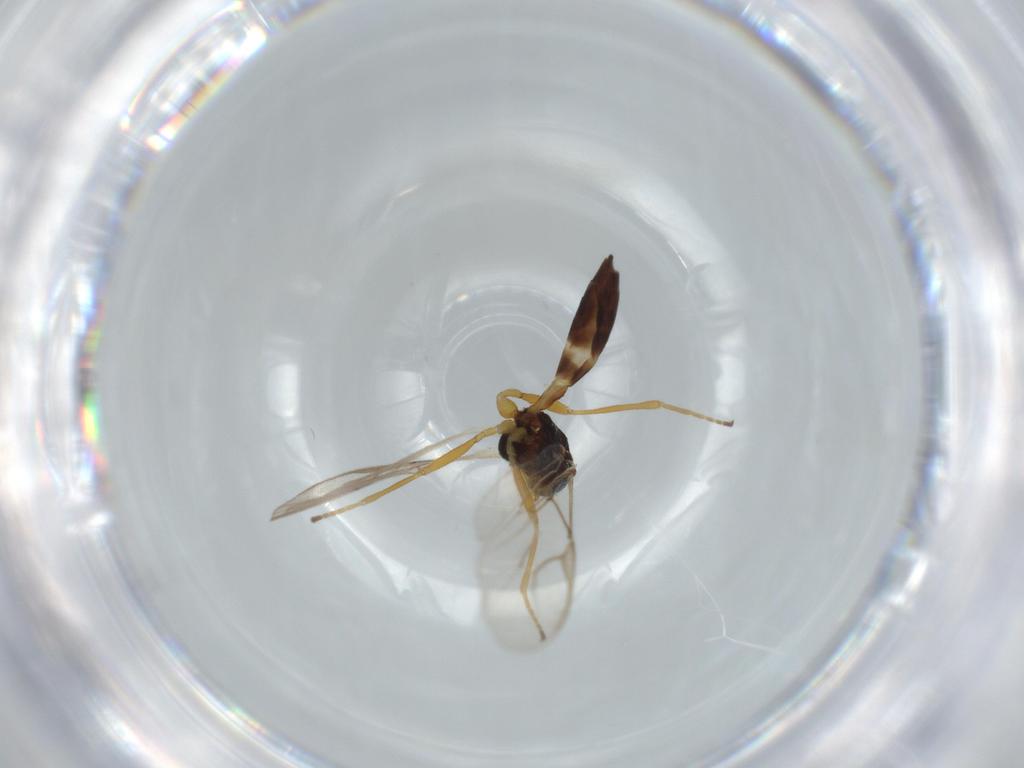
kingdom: Animalia
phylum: Arthropoda
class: Insecta
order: Hymenoptera
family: Braconidae
